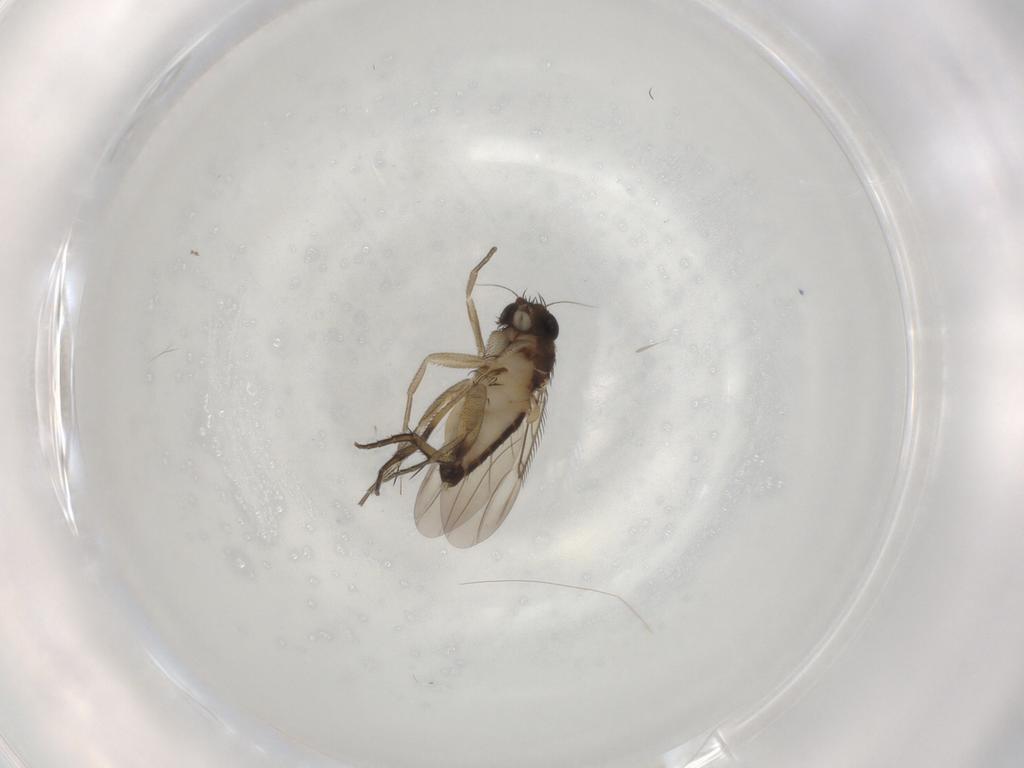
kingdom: Animalia
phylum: Arthropoda
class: Insecta
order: Diptera
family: Cecidomyiidae
